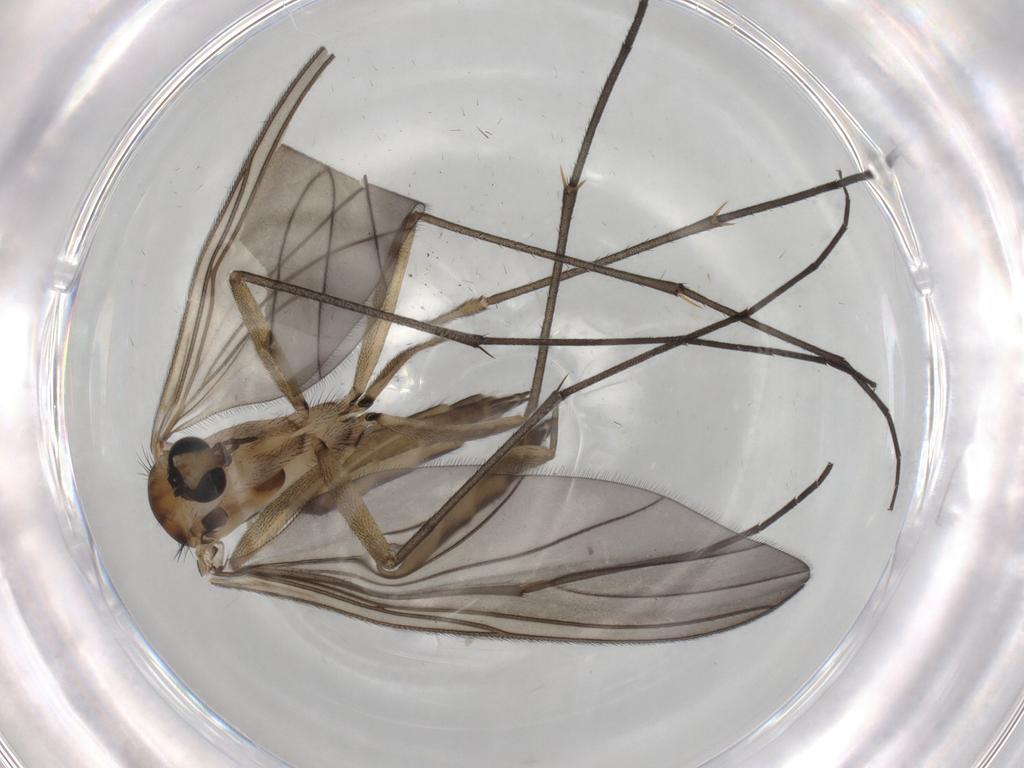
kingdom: Animalia
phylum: Arthropoda
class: Insecta
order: Diptera
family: Sciaridae
